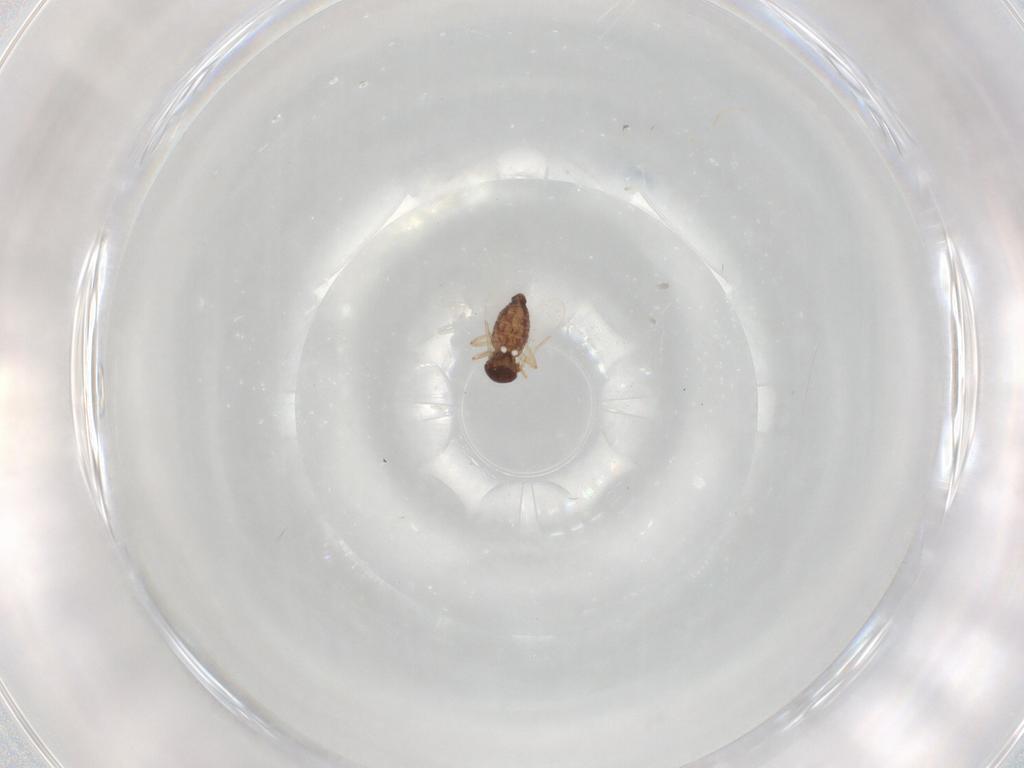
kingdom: Animalia
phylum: Arthropoda
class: Insecta
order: Diptera
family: Ceratopogonidae
